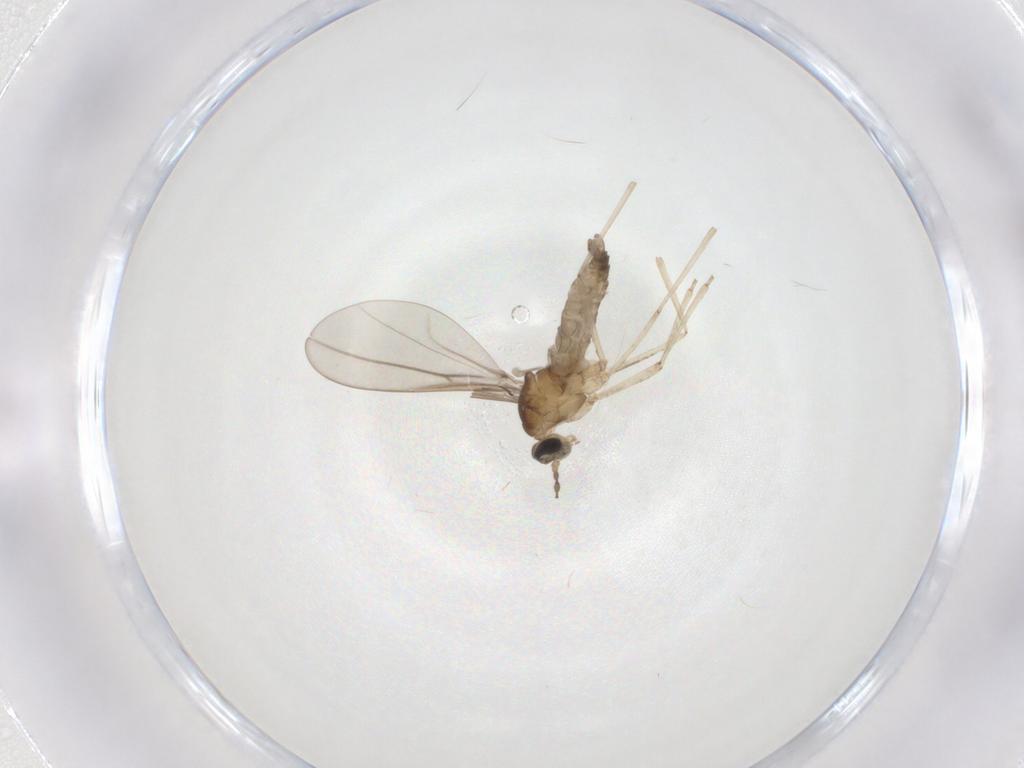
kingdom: Animalia
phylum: Arthropoda
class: Insecta
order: Diptera
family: Cecidomyiidae
